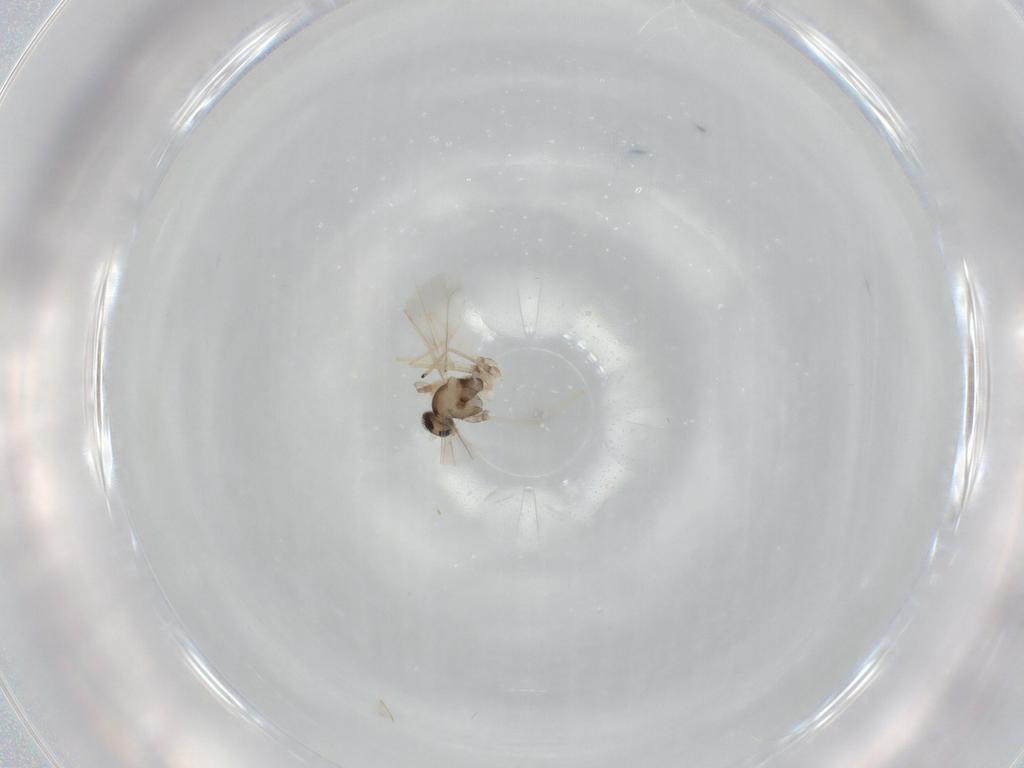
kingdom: Animalia
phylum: Arthropoda
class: Insecta
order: Diptera
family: Cecidomyiidae
